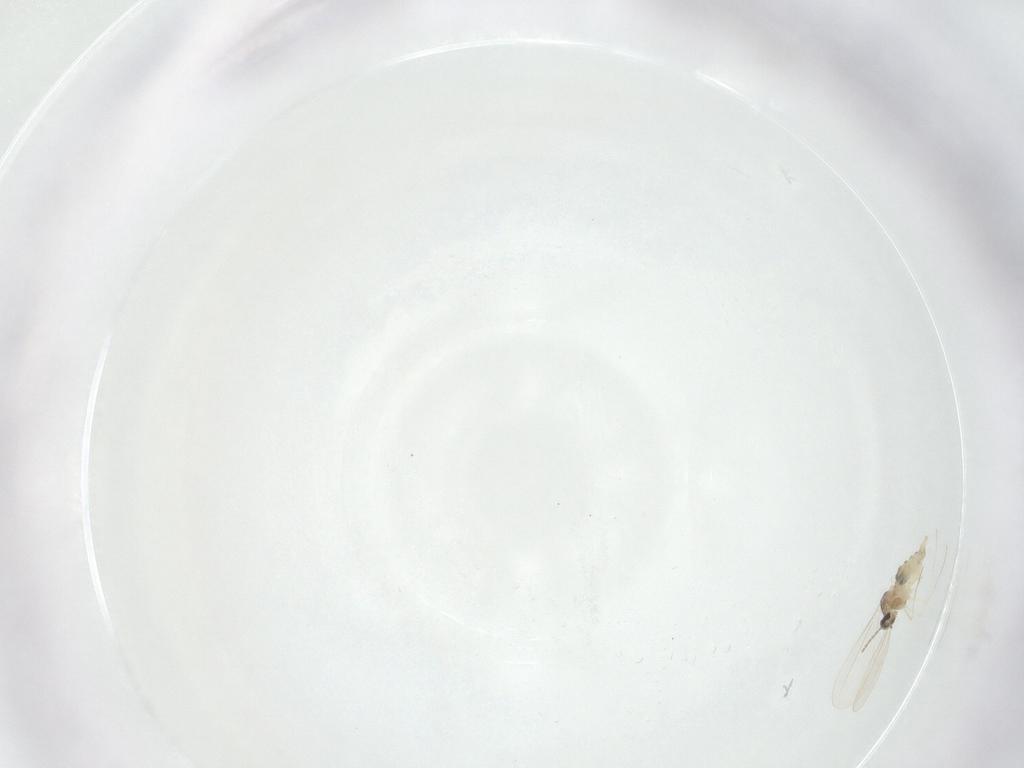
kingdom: Animalia
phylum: Arthropoda
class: Insecta
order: Diptera
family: Cecidomyiidae
